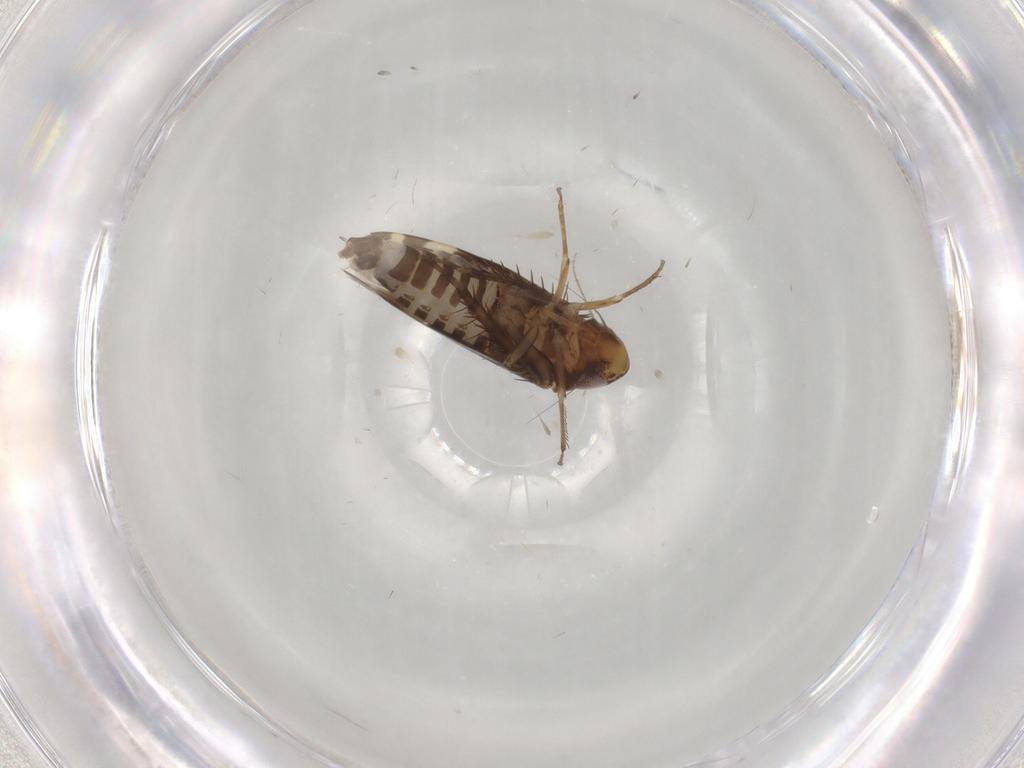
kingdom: Animalia
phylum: Arthropoda
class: Insecta
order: Hemiptera
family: Cicadellidae
